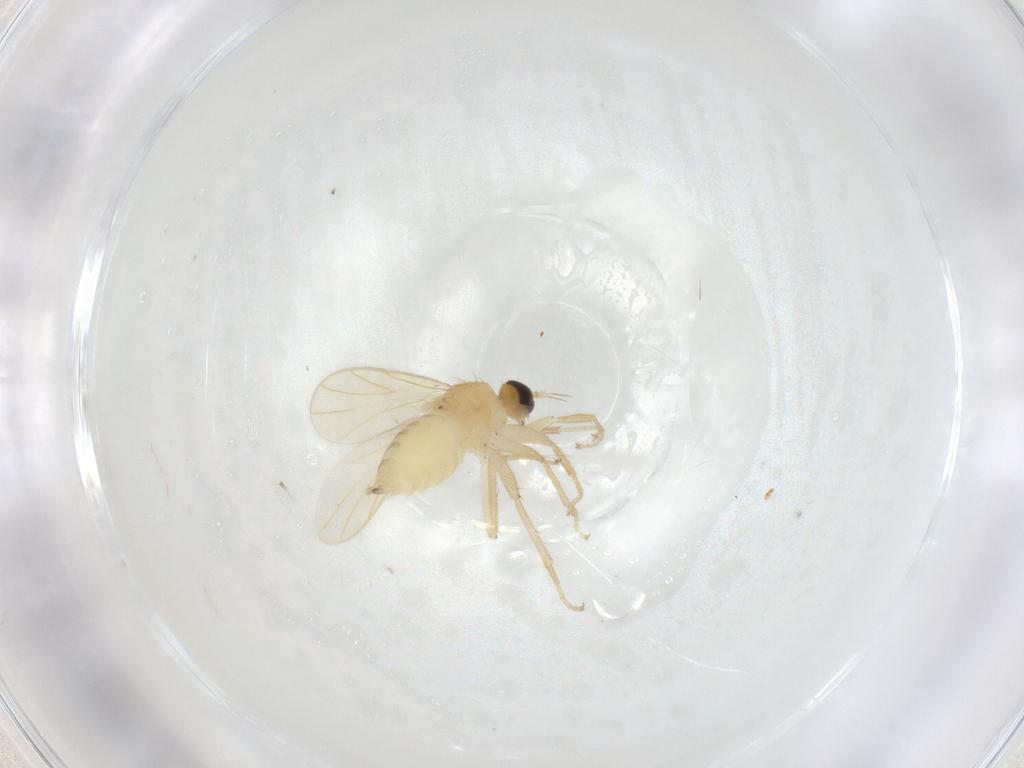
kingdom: Animalia
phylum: Arthropoda
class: Insecta
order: Diptera
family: Hybotidae
